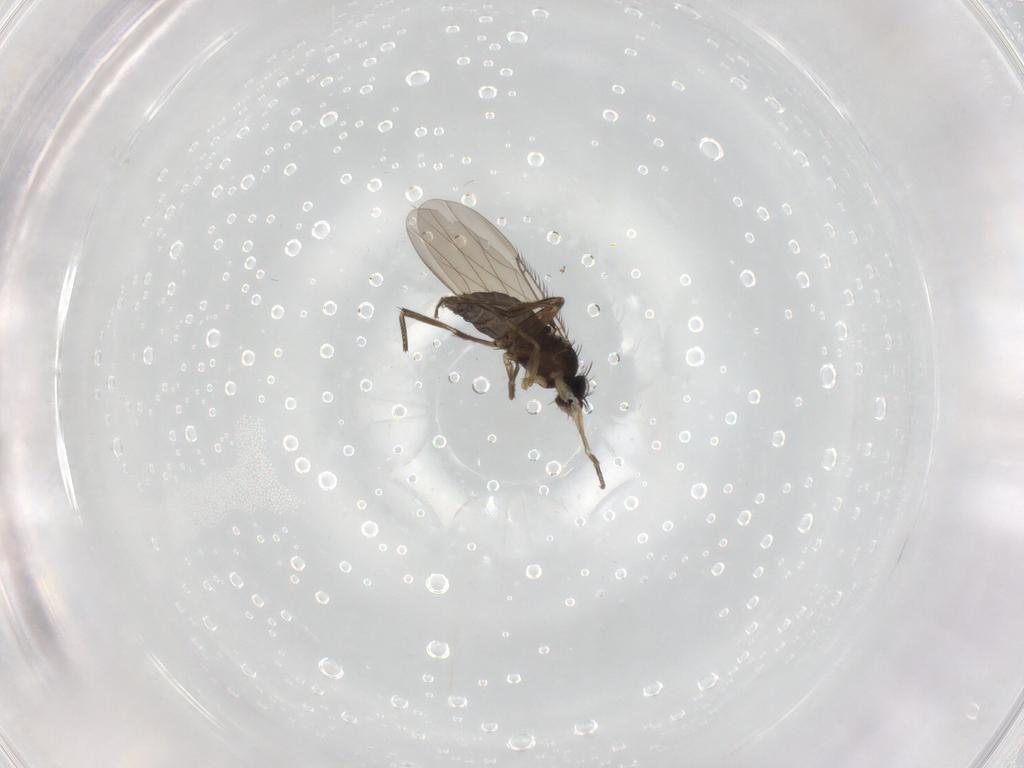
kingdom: Animalia
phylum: Arthropoda
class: Insecta
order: Diptera
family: Phoridae
